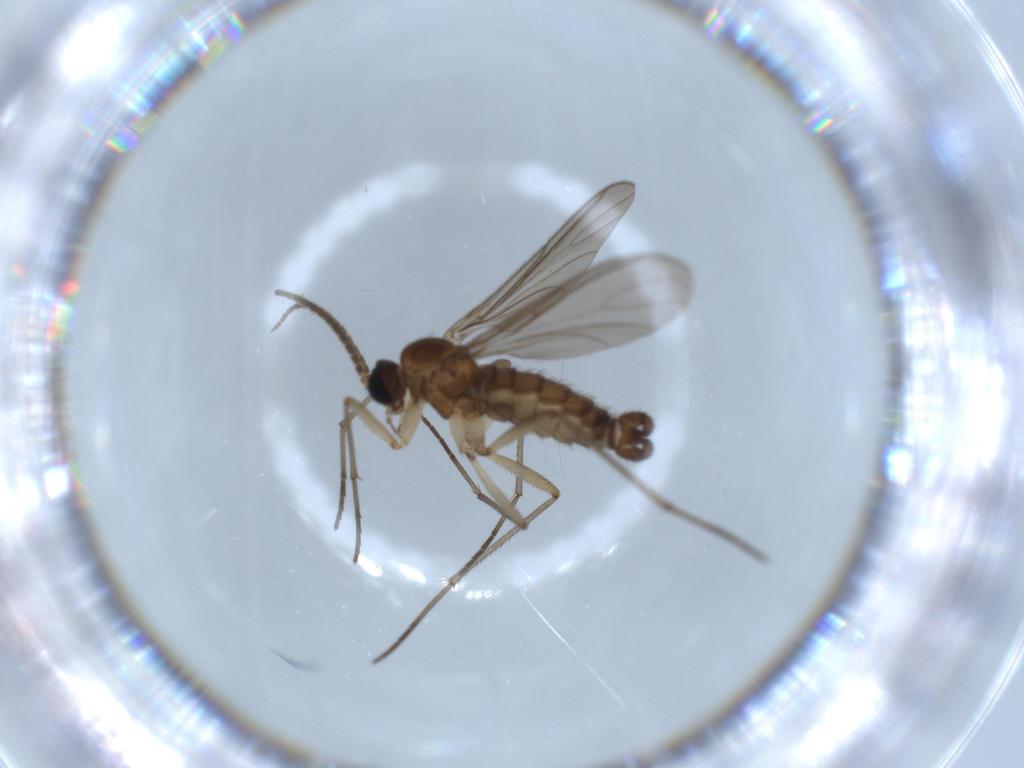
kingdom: Animalia
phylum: Arthropoda
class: Insecta
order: Diptera
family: Sciaridae
